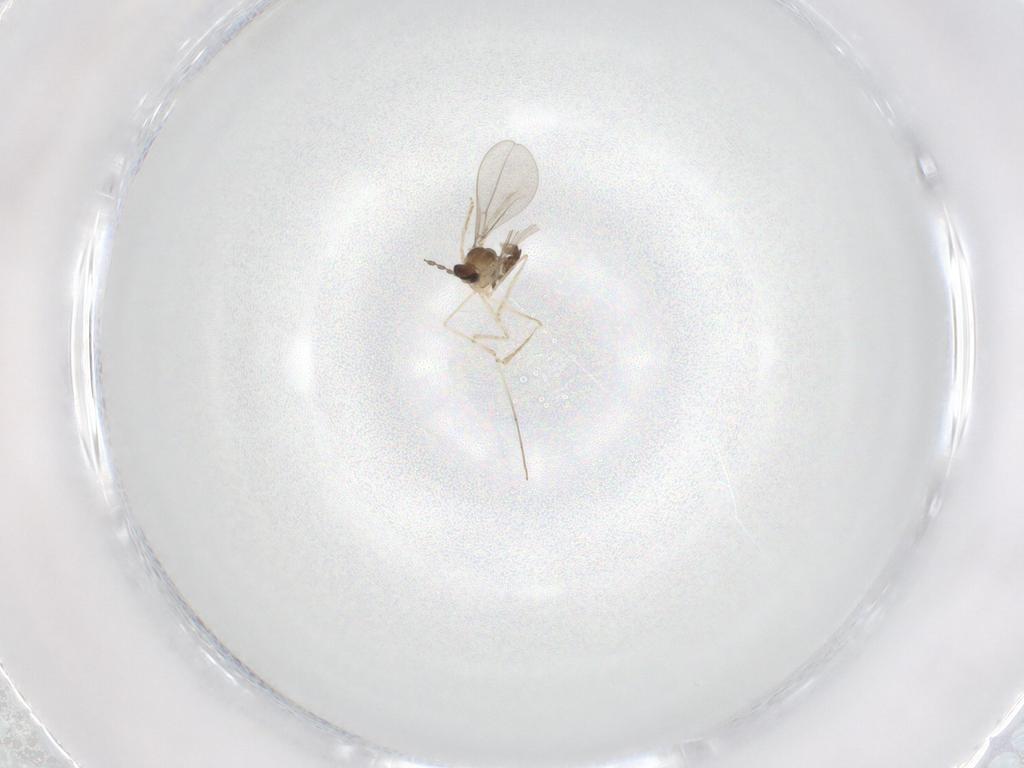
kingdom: Animalia
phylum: Arthropoda
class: Insecta
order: Diptera
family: Cecidomyiidae
